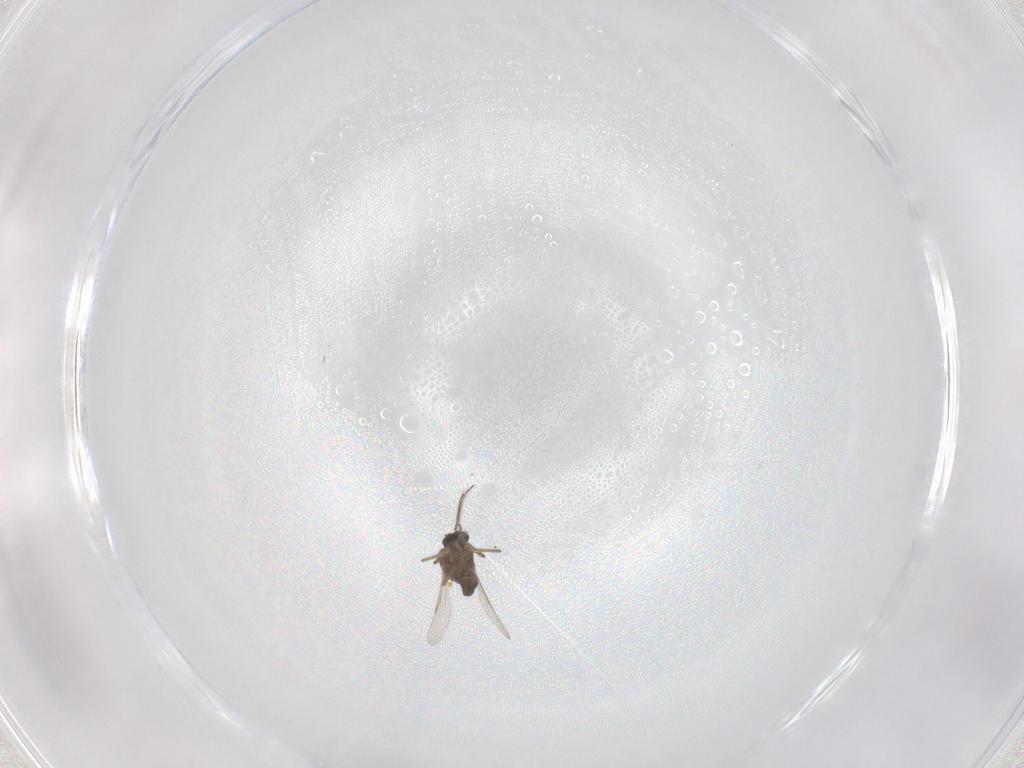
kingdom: Animalia
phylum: Arthropoda
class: Insecta
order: Diptera
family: Ceratopogonidae
